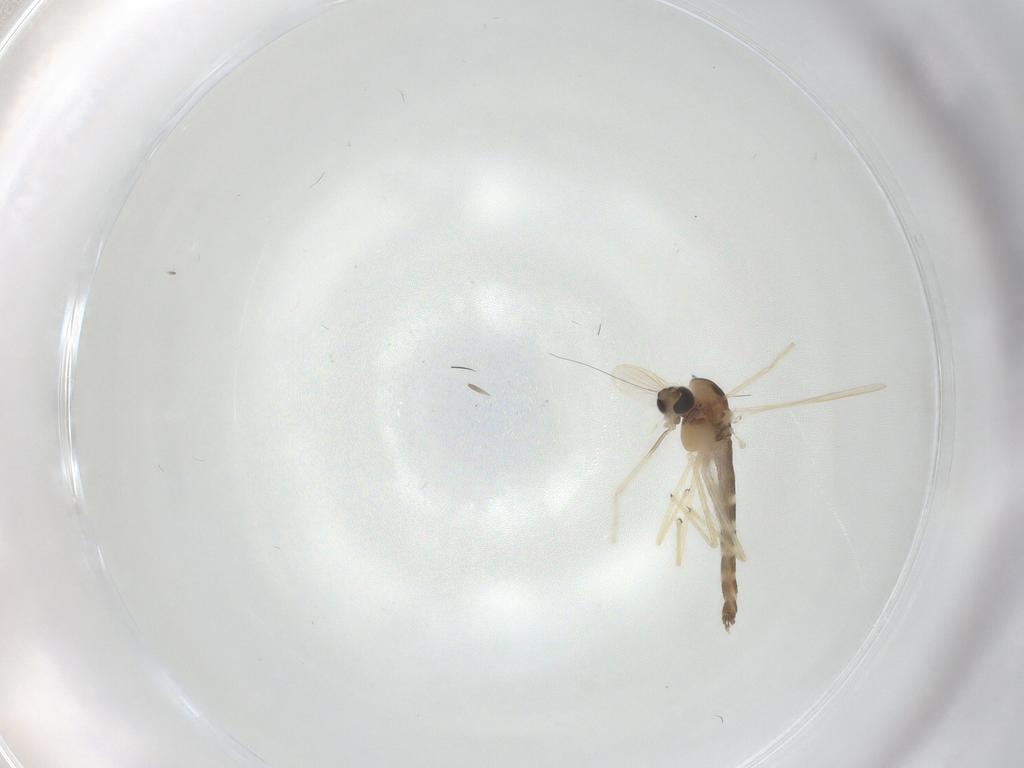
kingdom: Animalia
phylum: Arthropoda
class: Insecta
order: Diptera
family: Chironomidae
